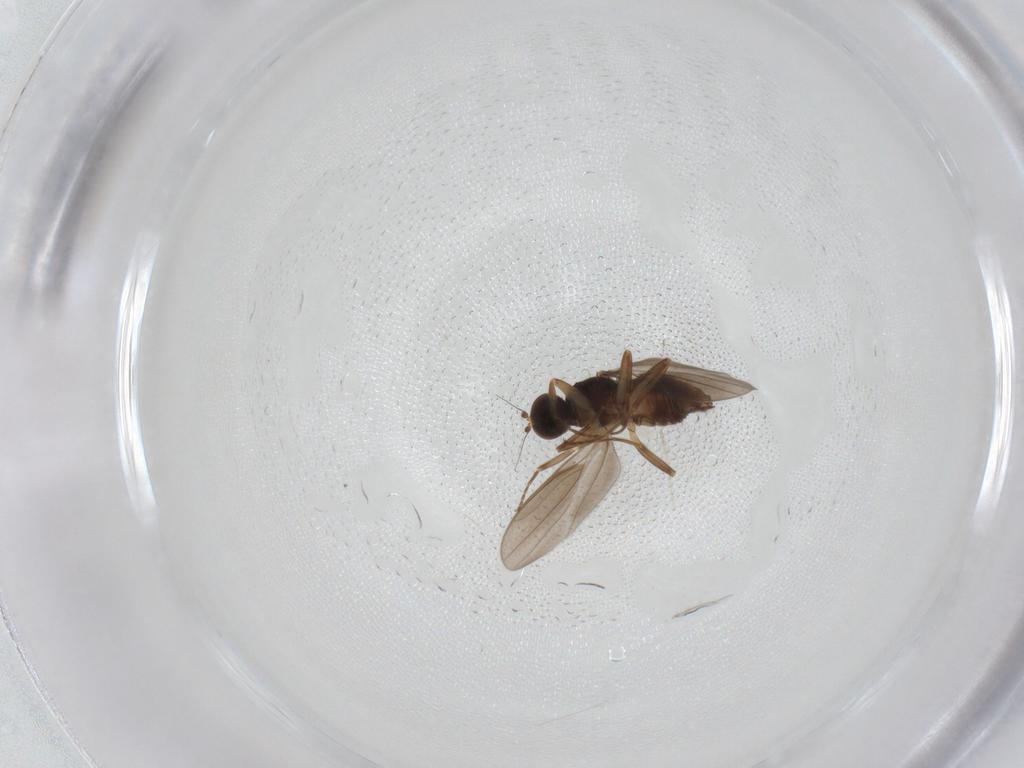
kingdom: Animalia
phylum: Arthropoda
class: Insecta
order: Diptera
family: Hybotidae
